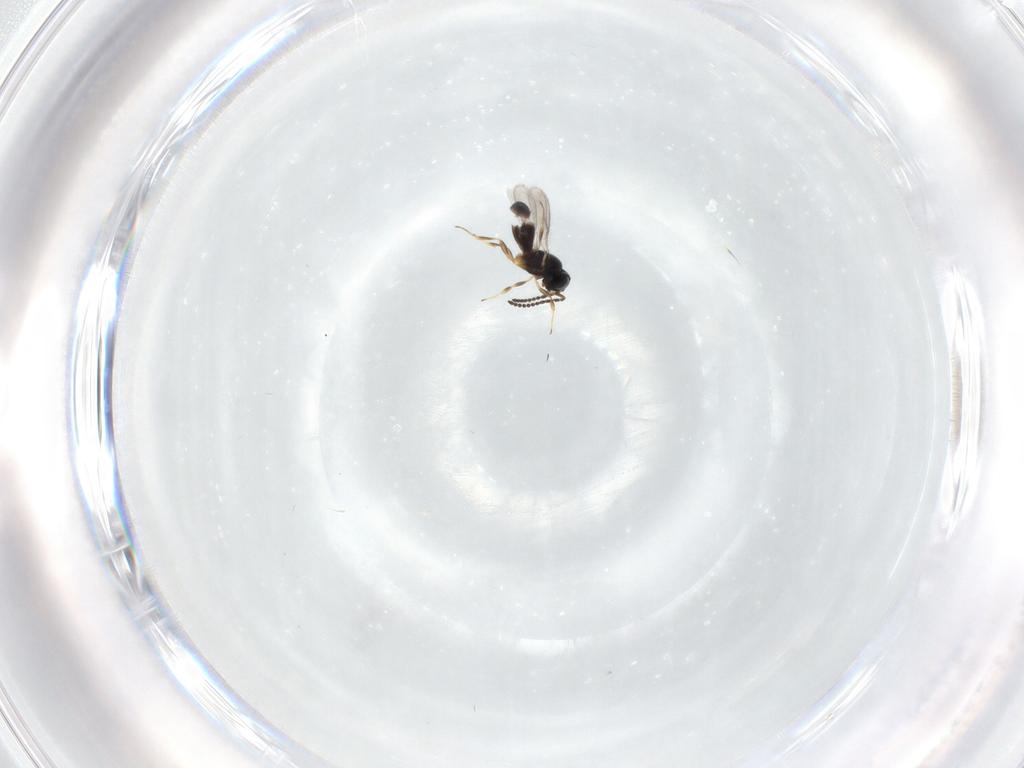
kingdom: Animalia
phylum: Arthropoda
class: Insecta
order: Hymenoptera
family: Scelionidae
